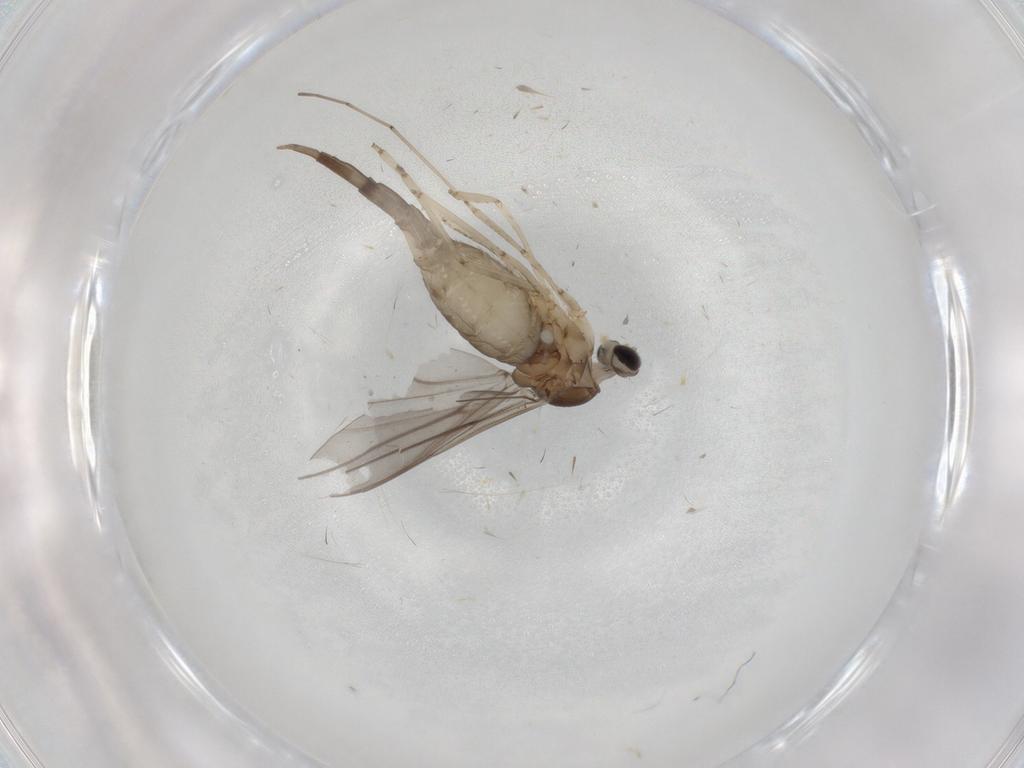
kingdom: Animalia
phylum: Arthropoda
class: Insecta
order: Diptera
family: Cecidomyiidae
